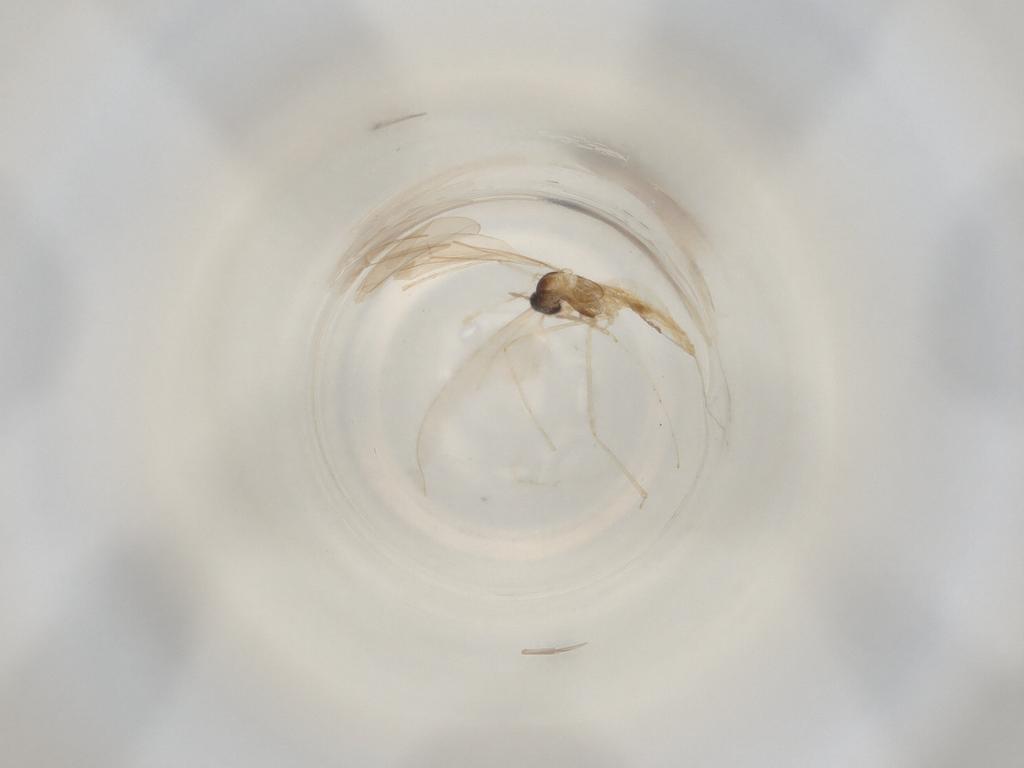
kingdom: Animalia
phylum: Arthropoda
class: Insecta
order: Diptera
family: Cecidomyiidae
